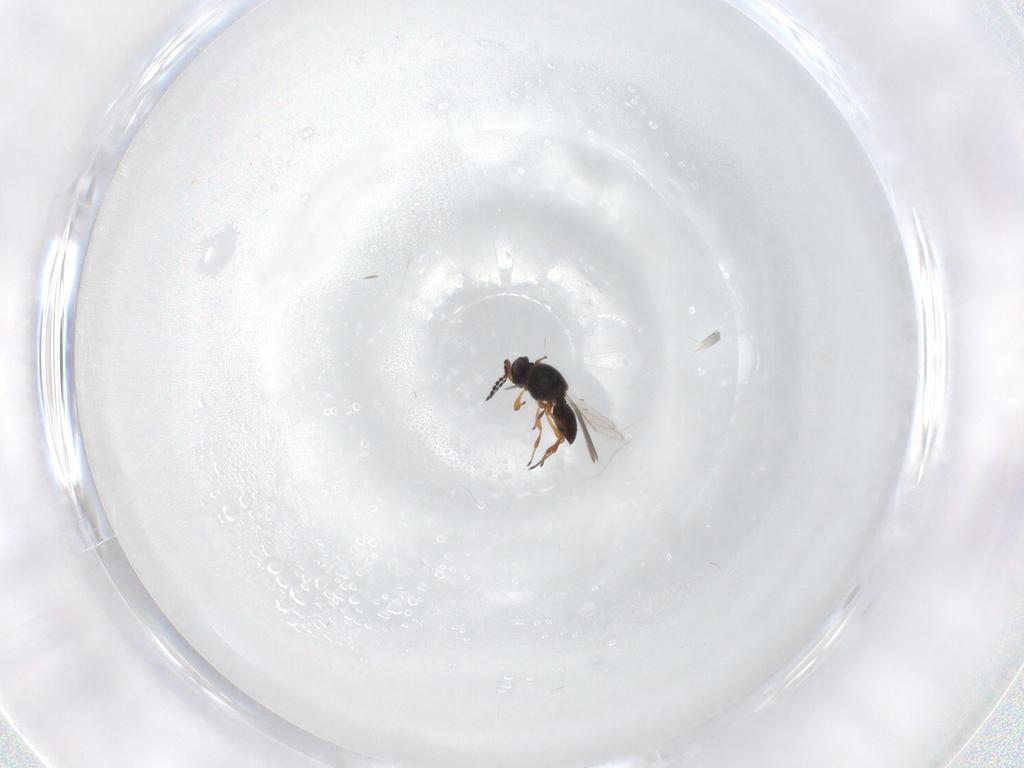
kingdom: Animalia
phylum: Arthropoda
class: Insecta
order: Hymenoptera
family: Platygastridae
